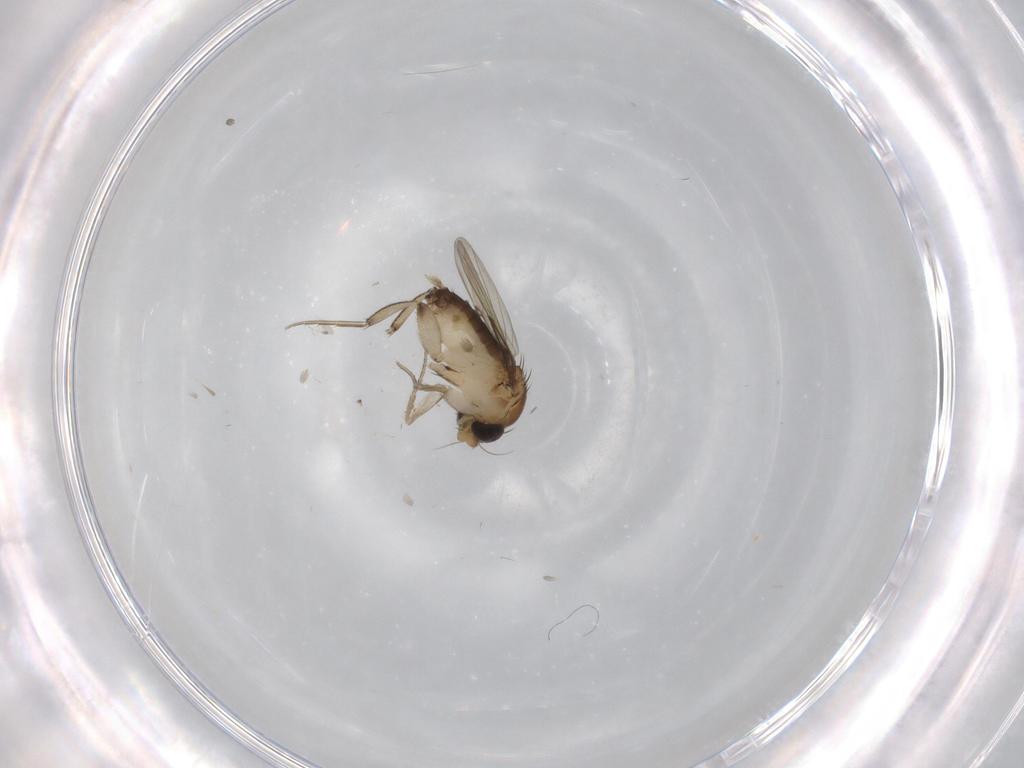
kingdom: Animalia
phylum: Arthropoda
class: Insecta
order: Diptera
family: Phoridae
